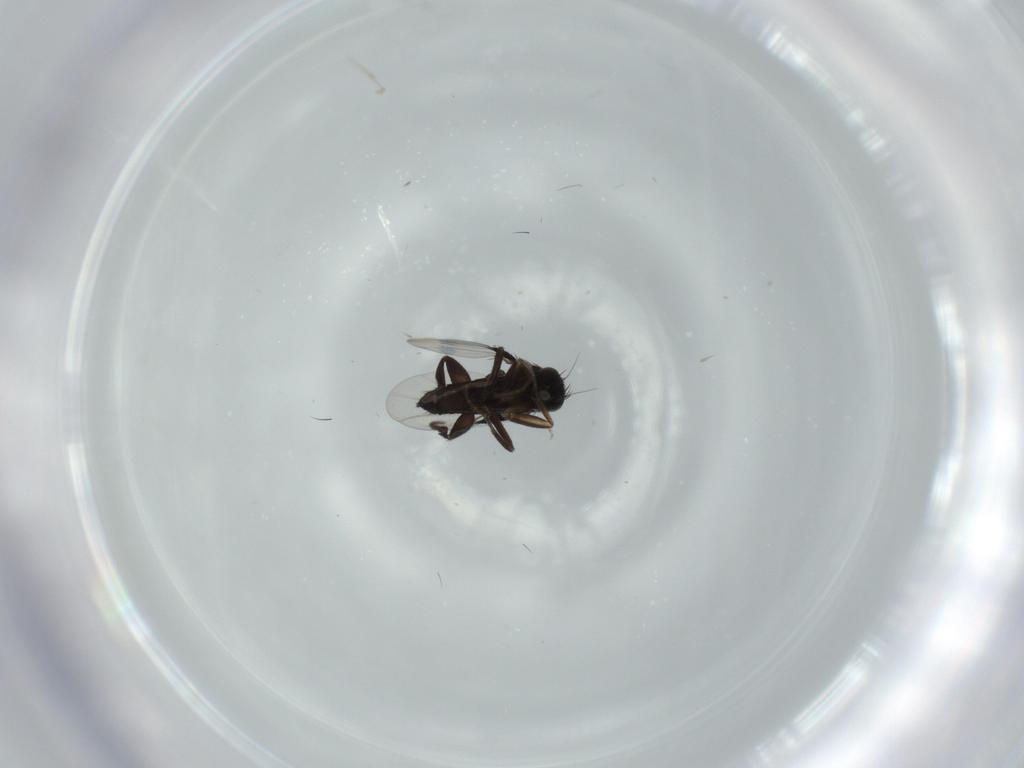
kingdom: Animalia
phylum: Arthropoda
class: Insecta
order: Diptera
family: Phoridae
